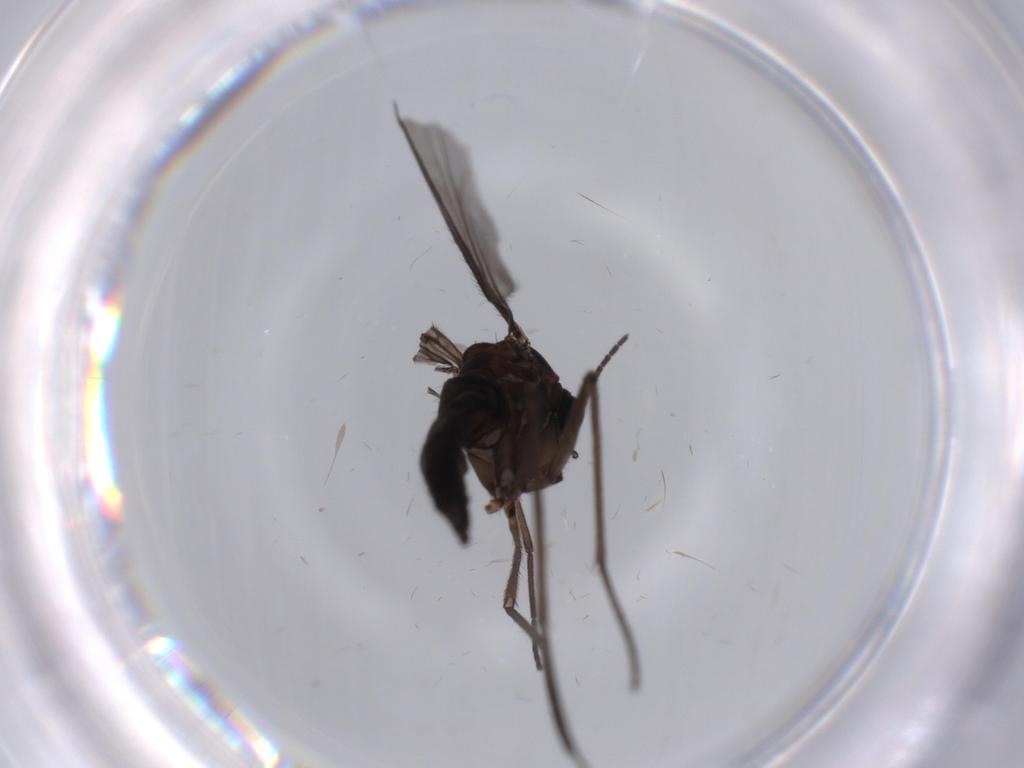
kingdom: Animalia
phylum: Arthropoda
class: Insecta
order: Diptera
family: Sciaridae
